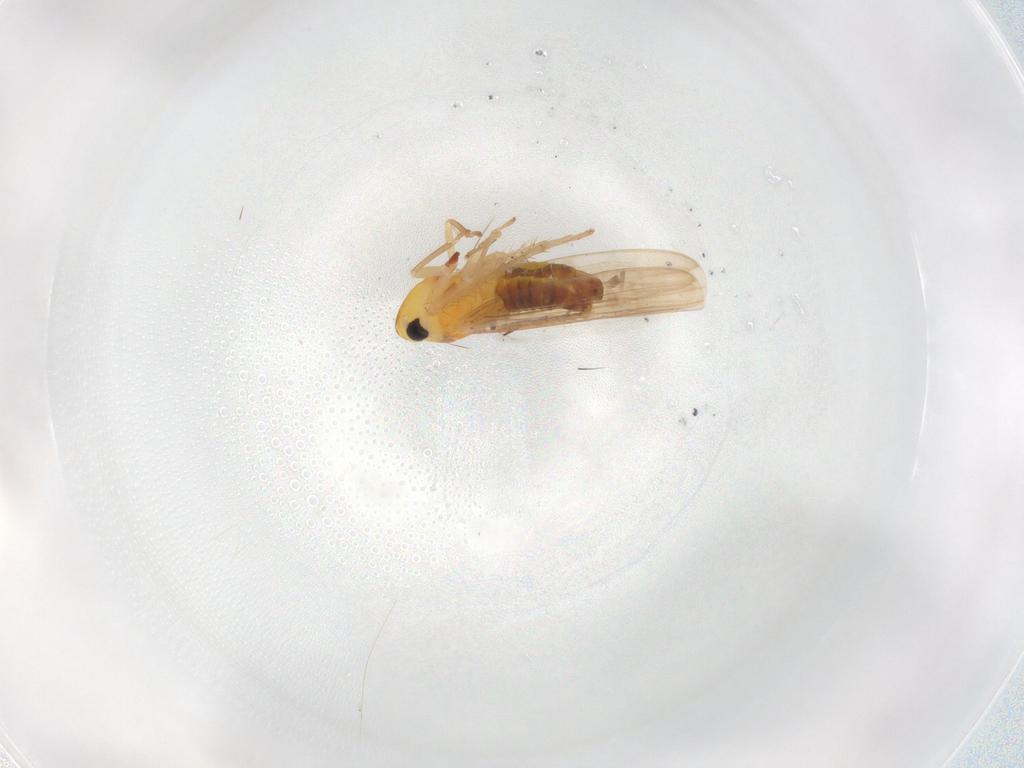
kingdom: Animalia
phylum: Arthropoda
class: Insecta
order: Hemiptera
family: Cicadellidae
